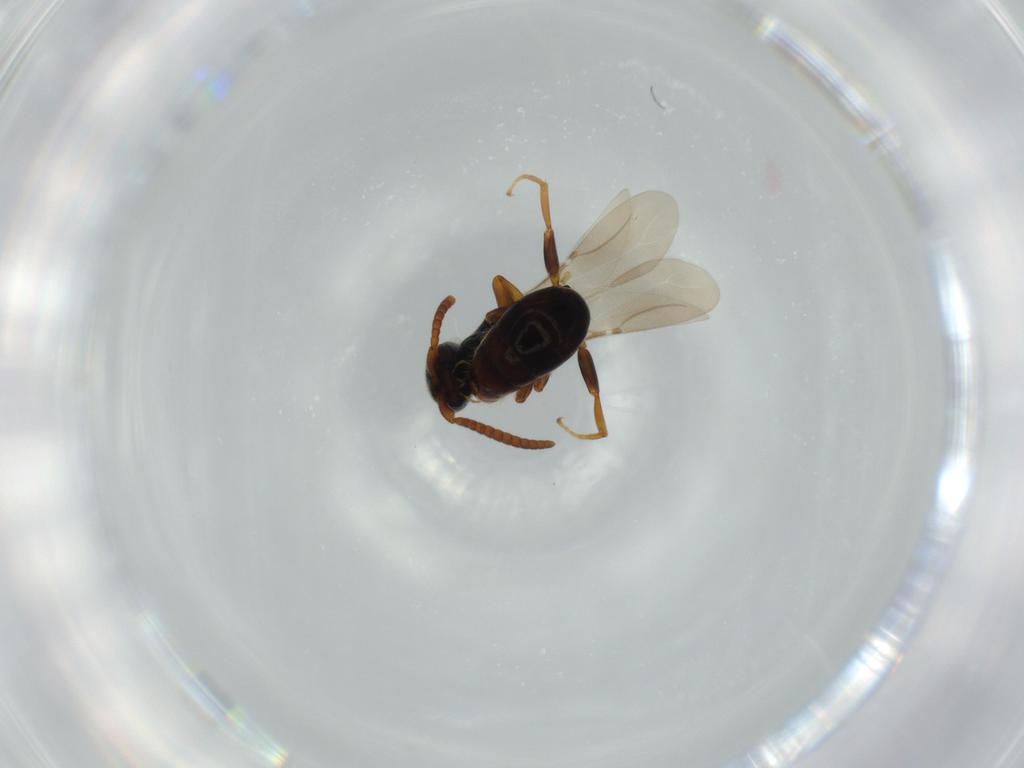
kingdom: Animalia
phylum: Arthropoda
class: Insecta
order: Hymenoptera
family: Bethylidae
